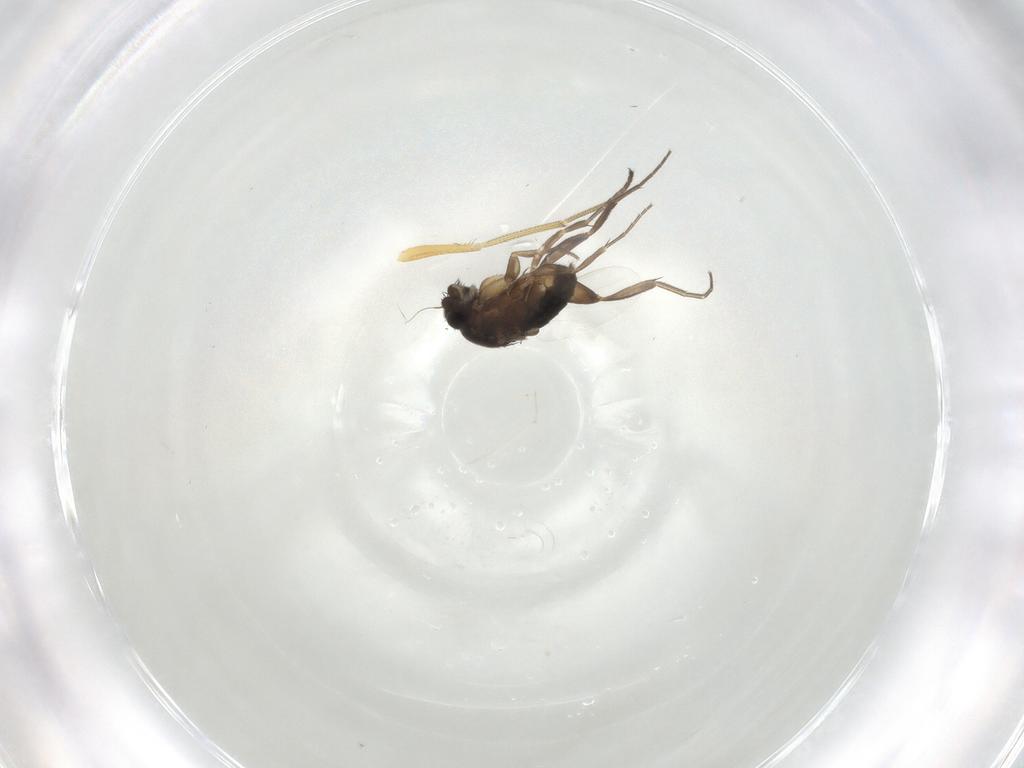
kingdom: Animalia
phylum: Arthropoda
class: Insecta
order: Diptera
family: Phoridae
